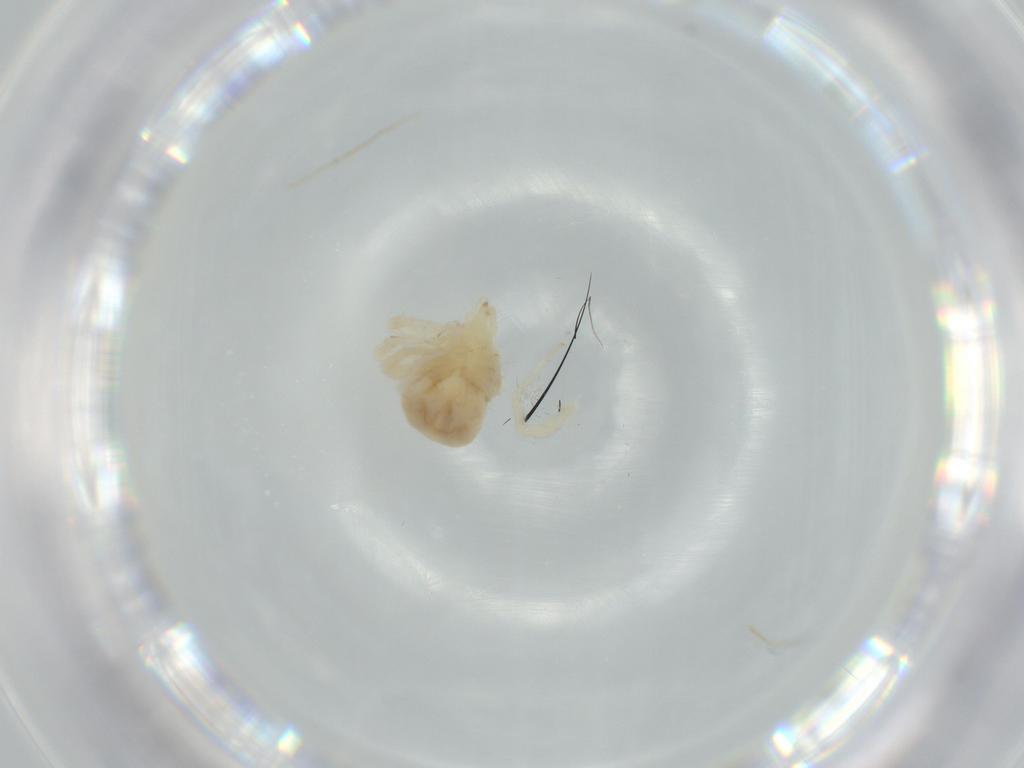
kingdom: Animalia
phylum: Arthropoda
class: Arachnida
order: Trombidiformes
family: Anystidae
